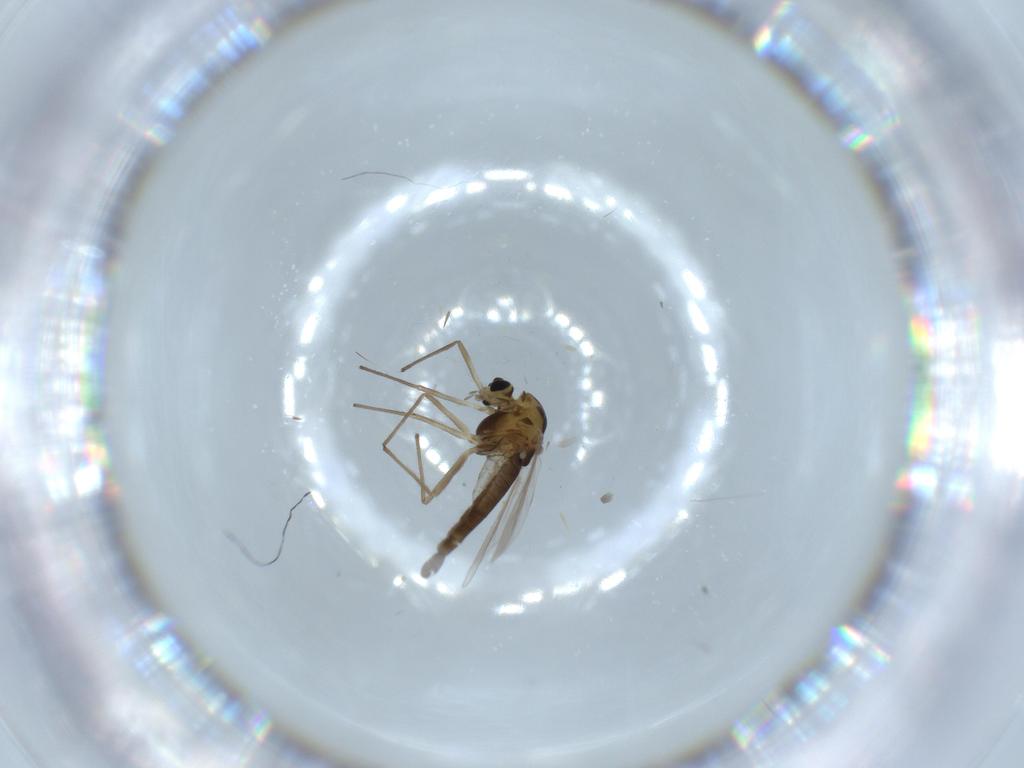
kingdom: Animalia
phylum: Arthropoda
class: Insecta
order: Diptera
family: Chironomidae
